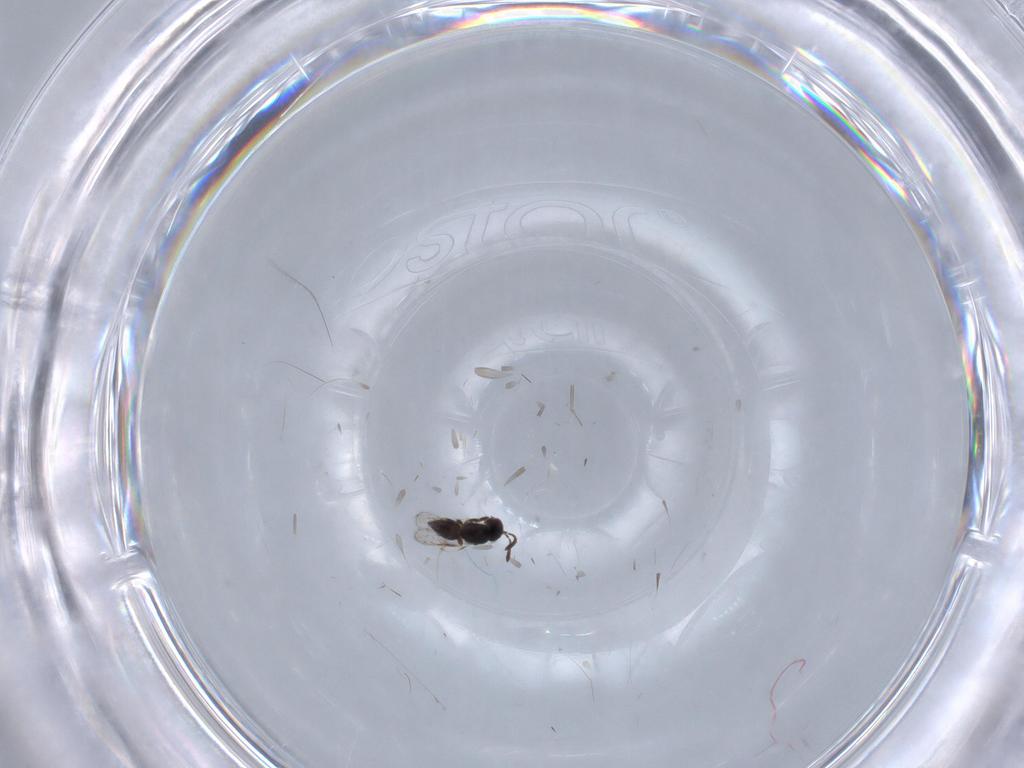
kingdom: Animalia
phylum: Arthropoda
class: Insecta
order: Hymenoptera
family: Ceraphronidae
